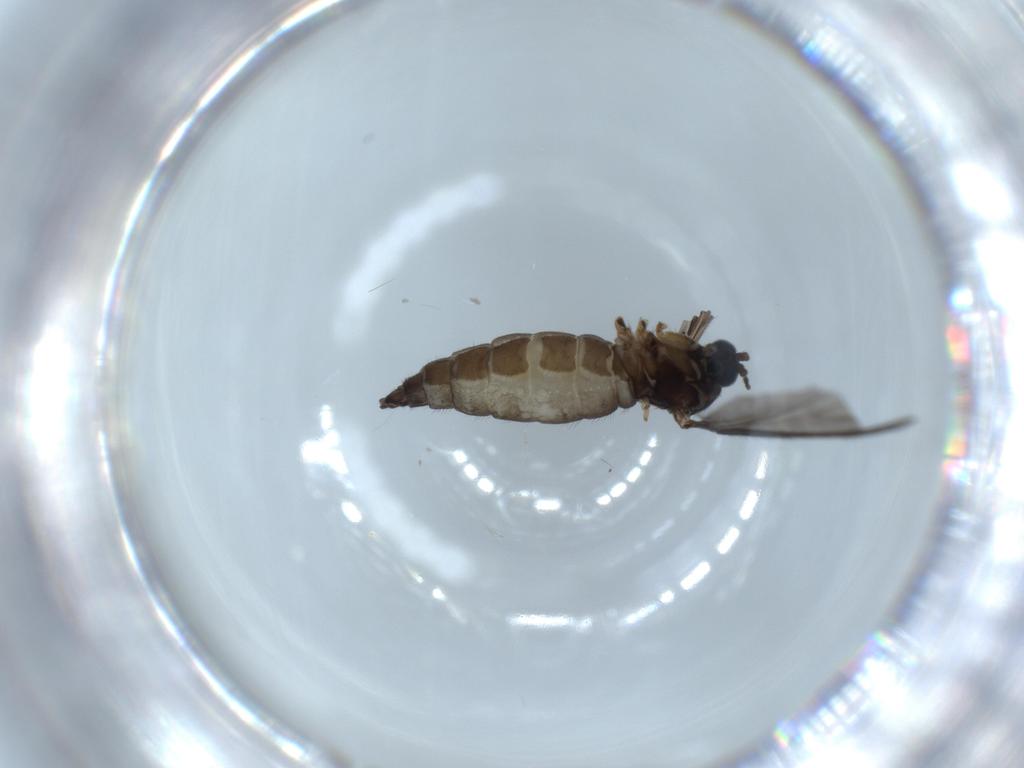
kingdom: Animalia
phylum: Arthropoda
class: Insecta
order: Diptera
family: Sciaridae
